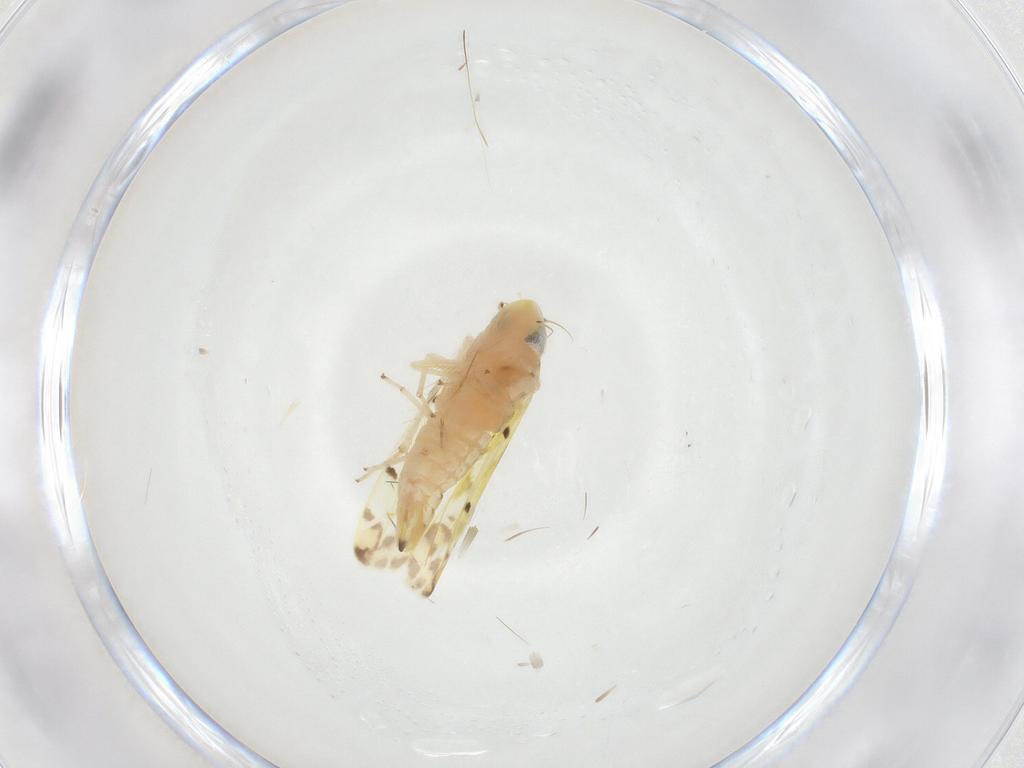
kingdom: Animalia
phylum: Arthropoda
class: Insecta
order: Hemiptera
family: Cicadellidae
